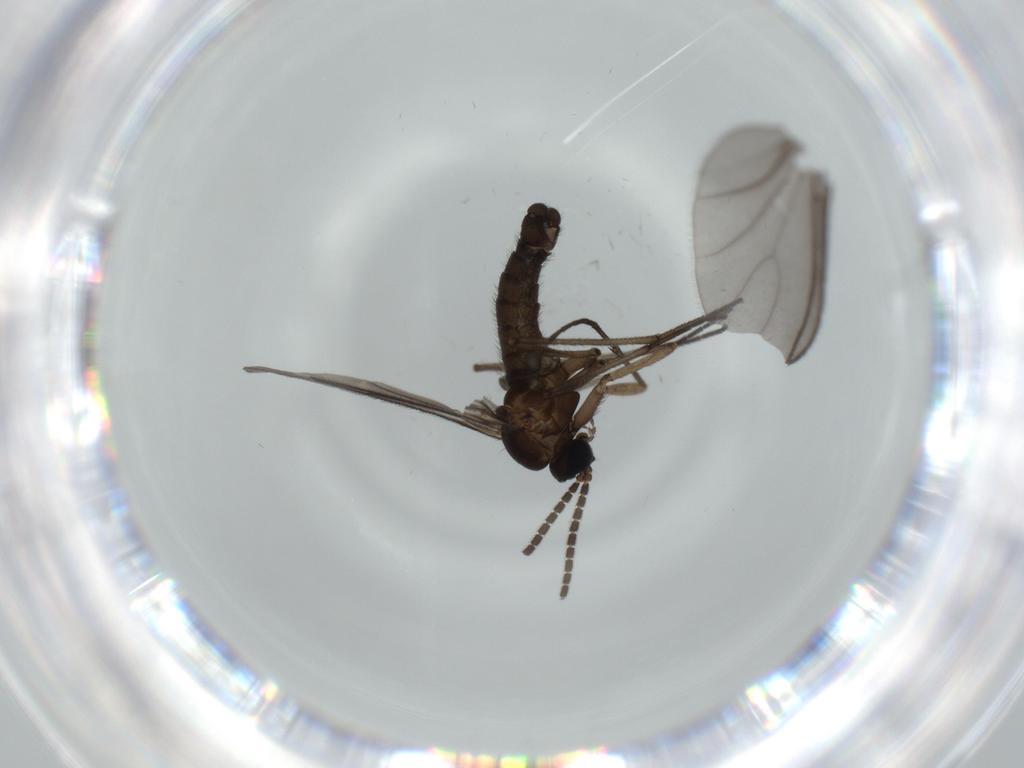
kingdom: Animalia
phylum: Arthropoda
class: Insecta
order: Diptera
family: Sciaridae
